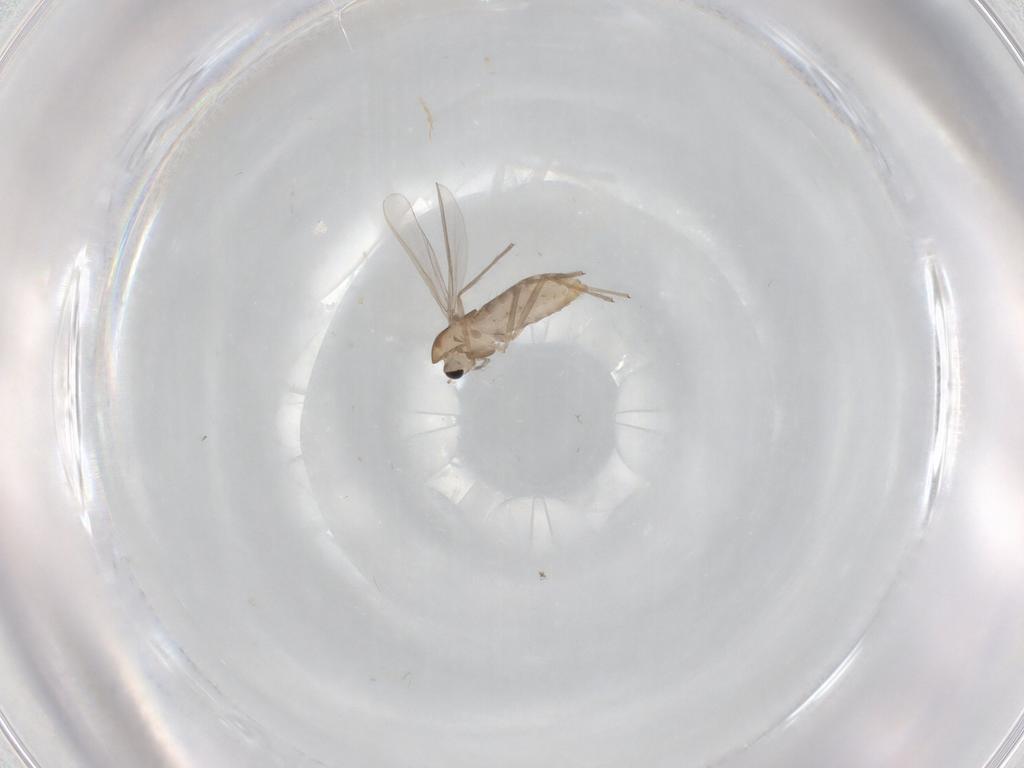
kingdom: Animalia
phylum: Arthropoda
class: Insecta
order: Diptera
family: Chironomidae
